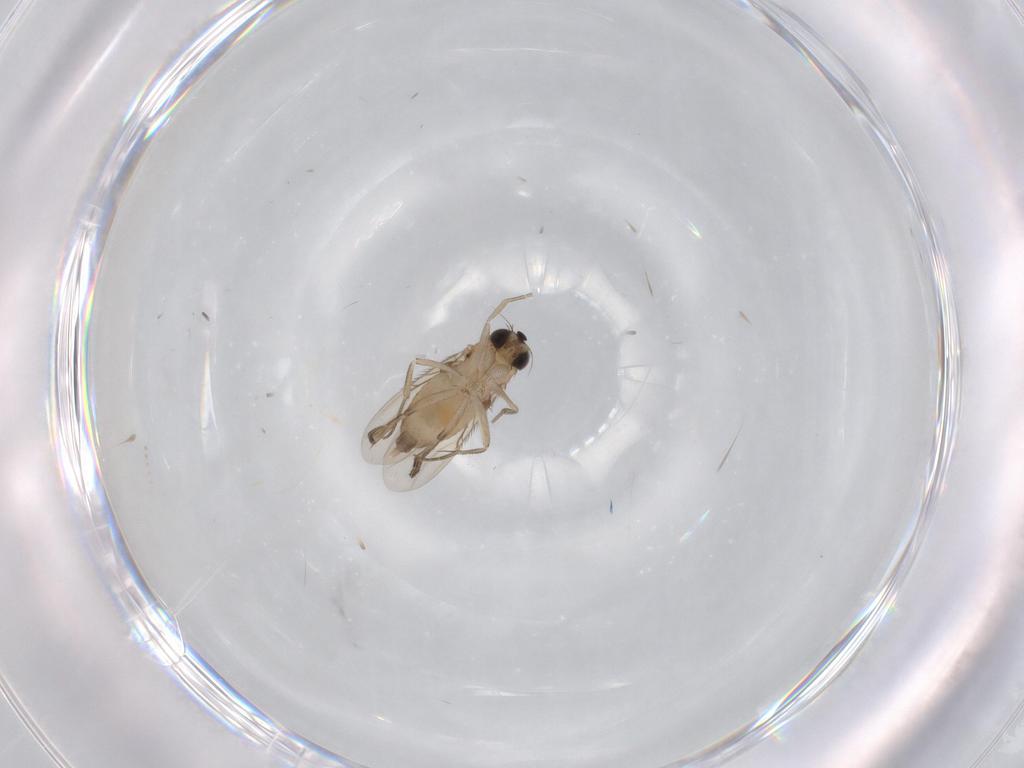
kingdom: Animalia
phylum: Arthropoda
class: Insecta
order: Diptera
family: Phoridae
